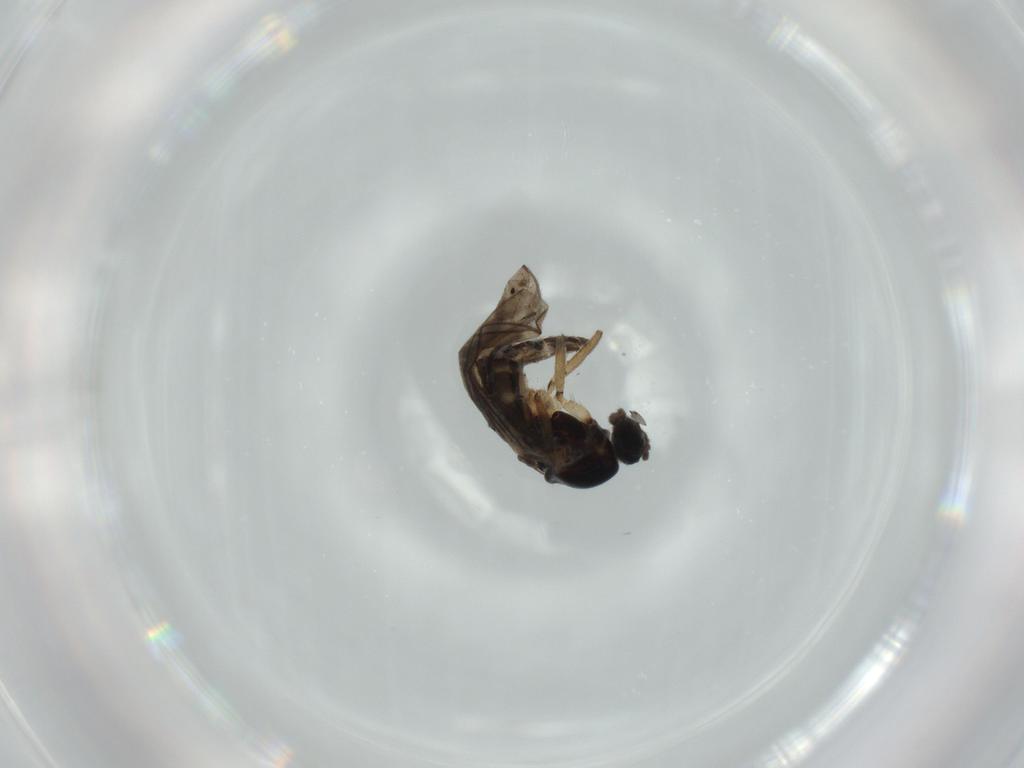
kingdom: Animalia
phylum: Arthropoda
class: Insecta
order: Diptera
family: Sciaridae
